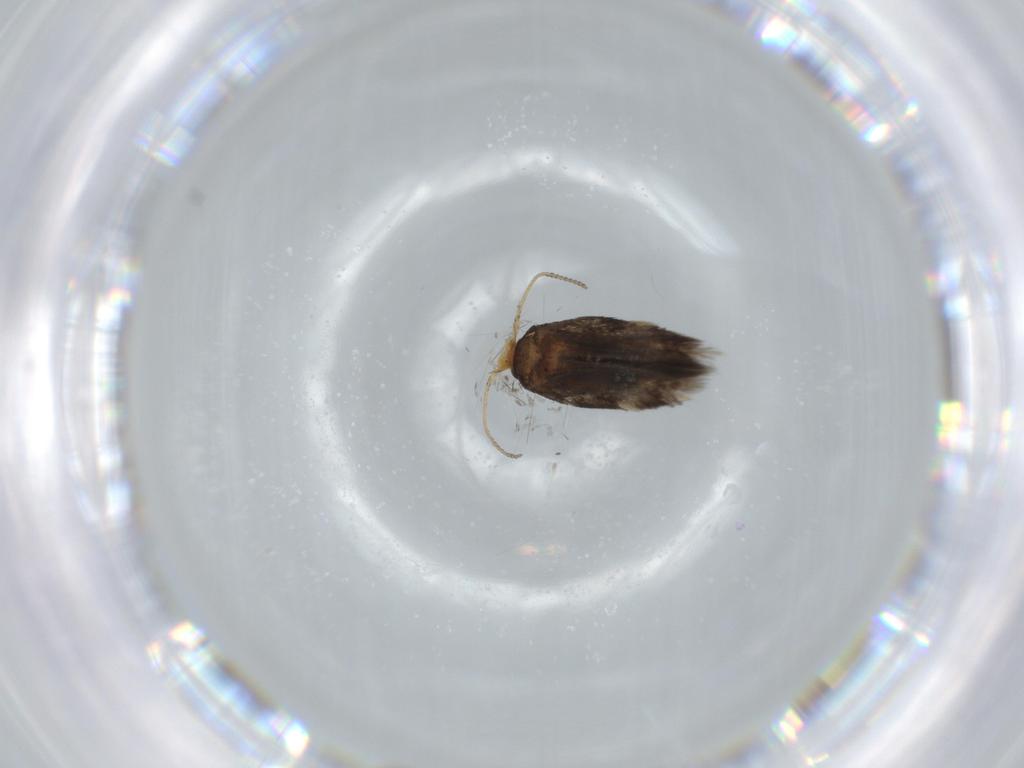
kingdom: Animalia
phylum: Arthropoda
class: Insecta
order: Lepidoptera
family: Nepticulidae
